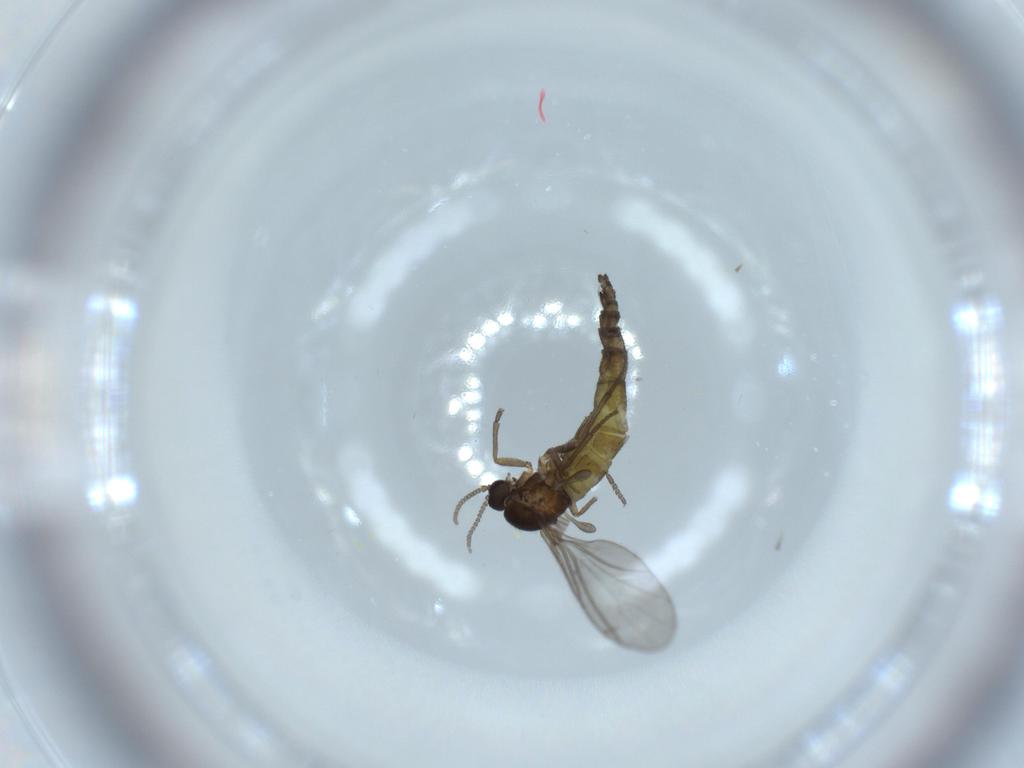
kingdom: Animalia
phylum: Arthropoda
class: Insecta
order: Diptera
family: Sciaridae
